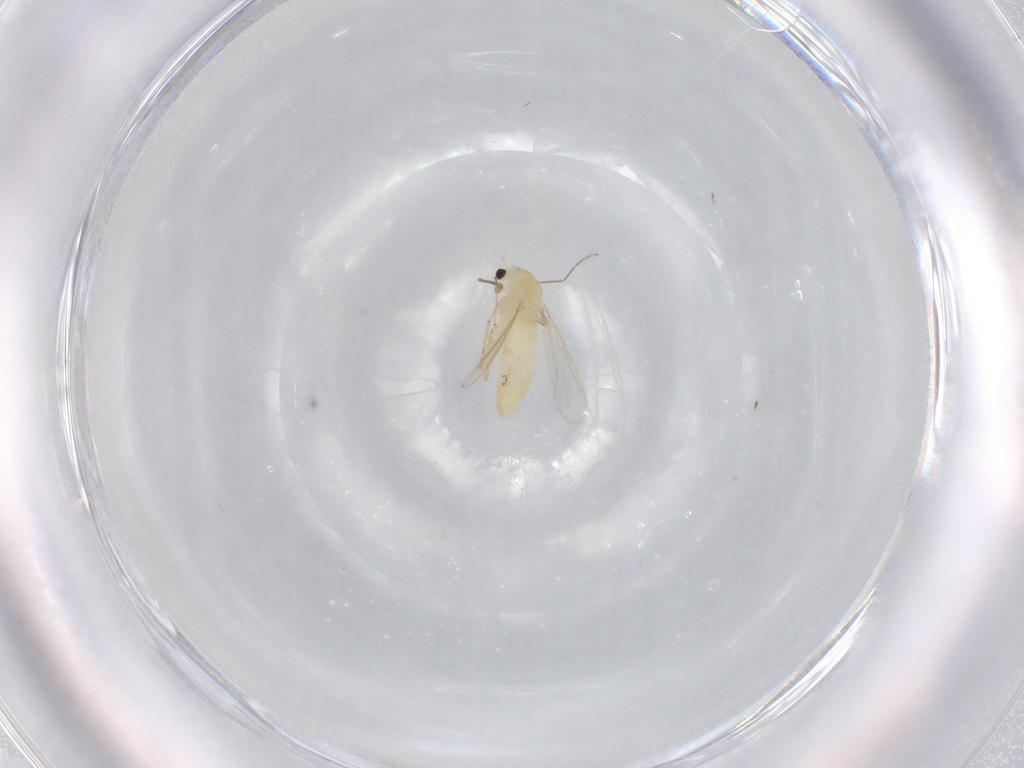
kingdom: Animalia
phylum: Arthropoda
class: Insecta
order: Diptera
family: Chironomidae
